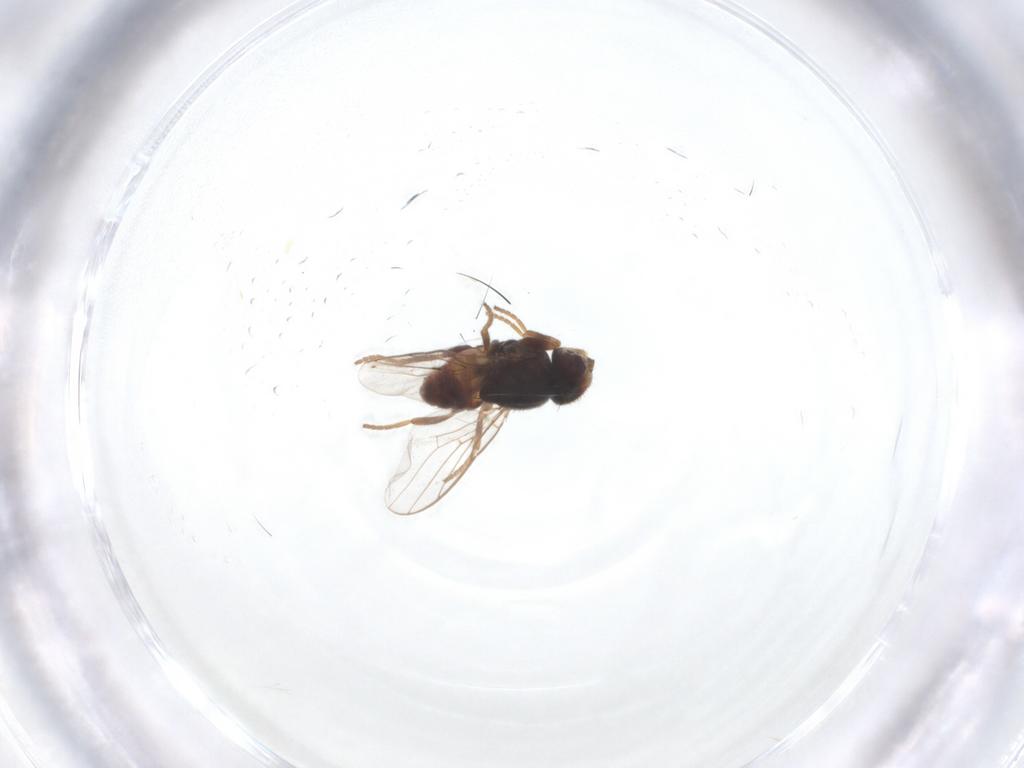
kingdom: Animalia
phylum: Arthropoda
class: Insecta
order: Diptera
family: Chloropidae
